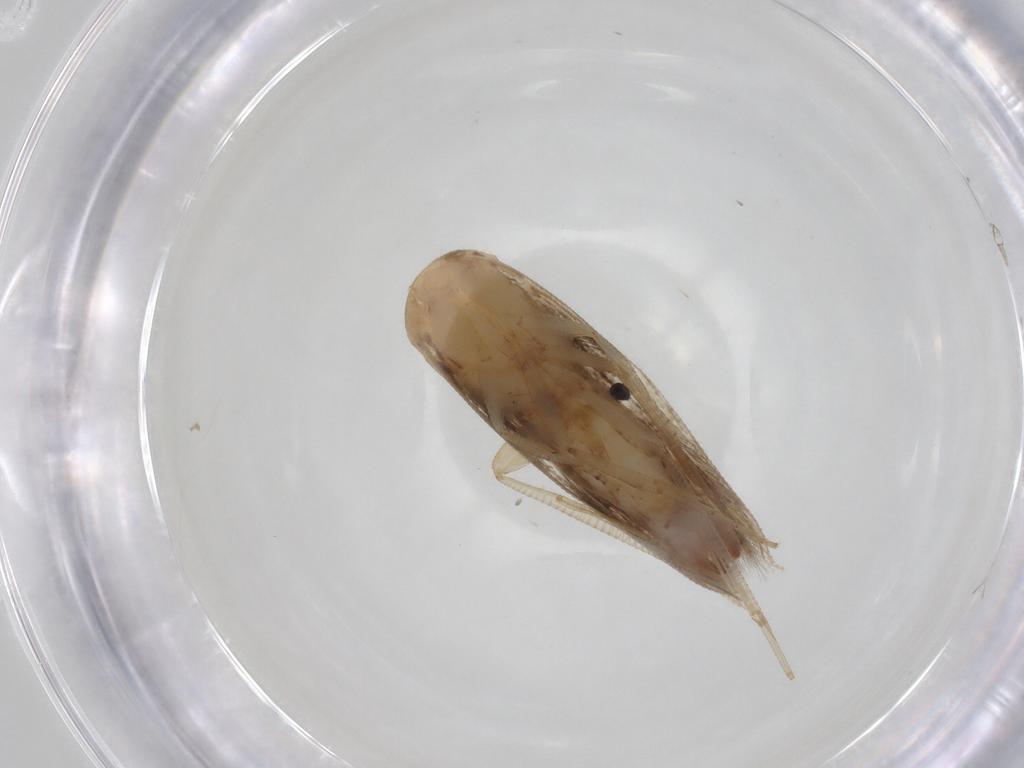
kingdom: Animalia
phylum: Arthropoda
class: Insecta
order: Lepidoptera
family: Cosmopterigidae
